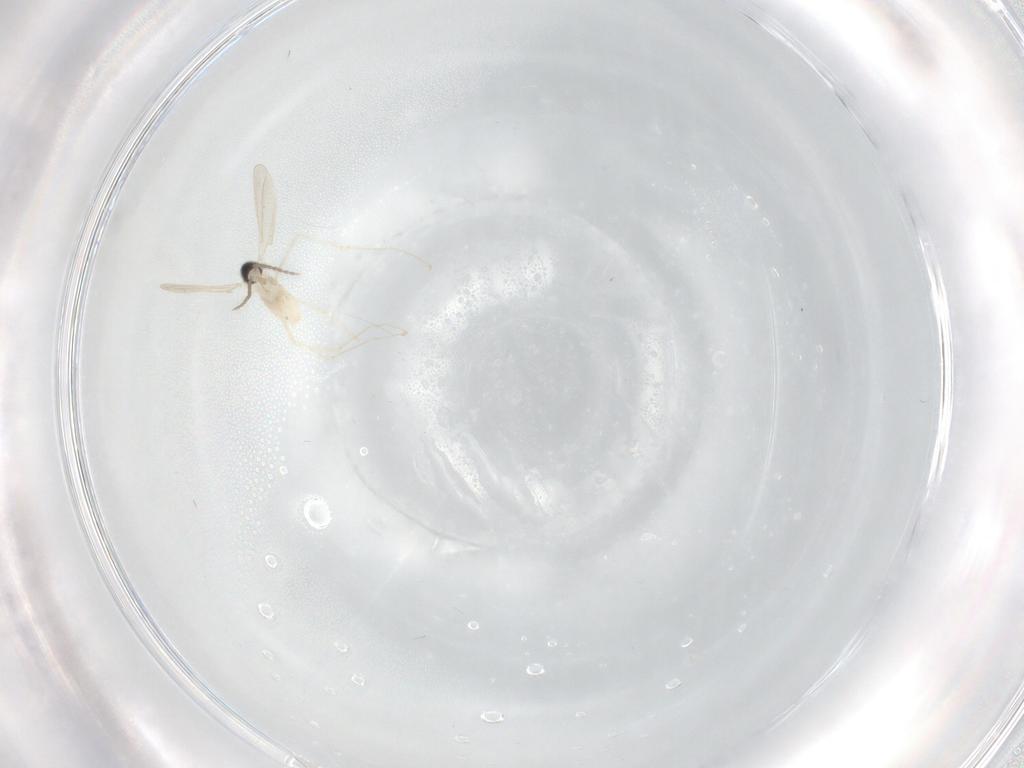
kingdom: Animalia
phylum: Arthropoda
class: Insecta
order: Diptera
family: Cecidomyiidae
